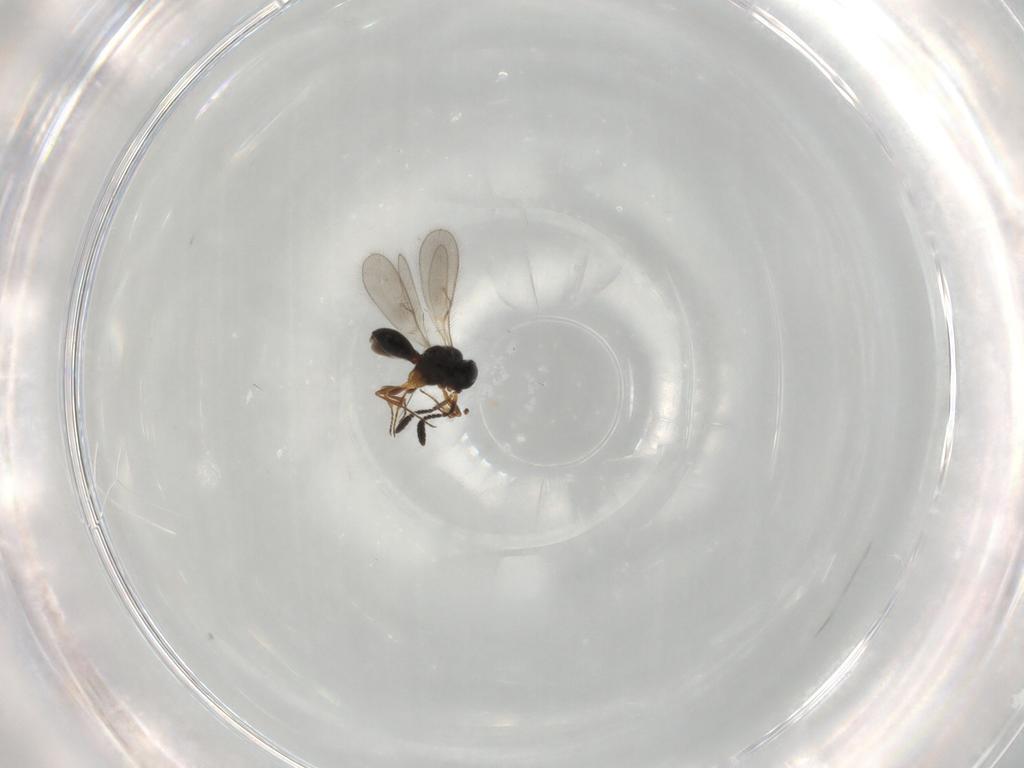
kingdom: Animalia
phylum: Arthropoda
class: Insecta
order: Hymenoptera
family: Scelionidae
